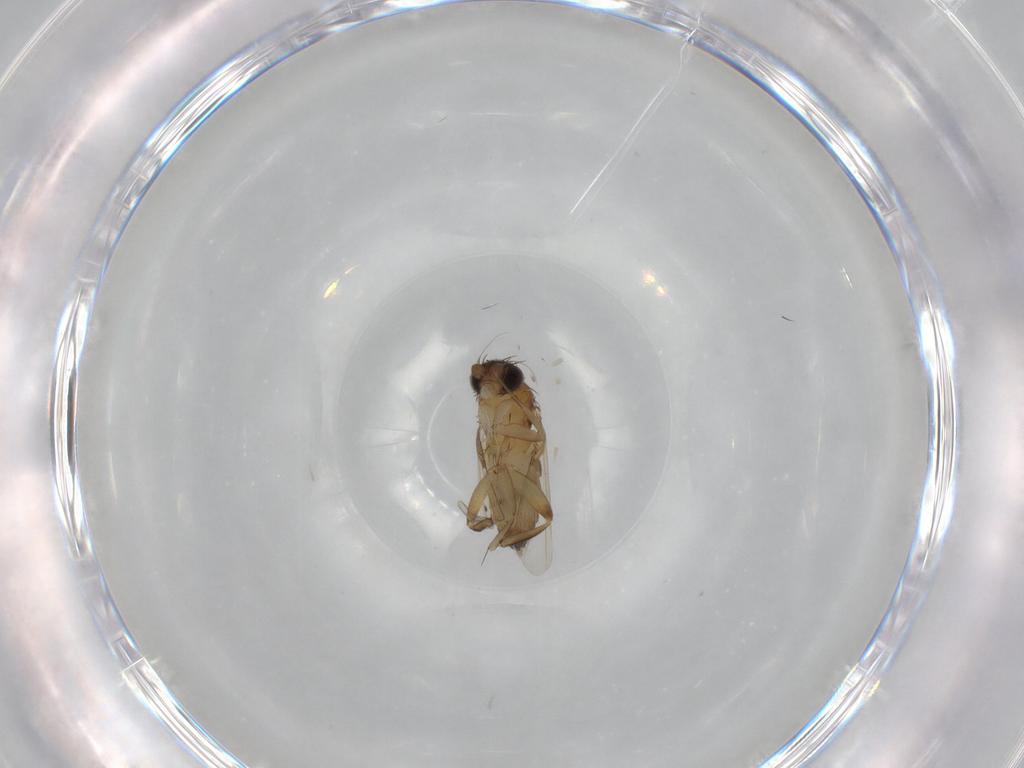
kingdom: Animalia
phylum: Arthropoda
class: Insecta
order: Diptera
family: Phoridae
